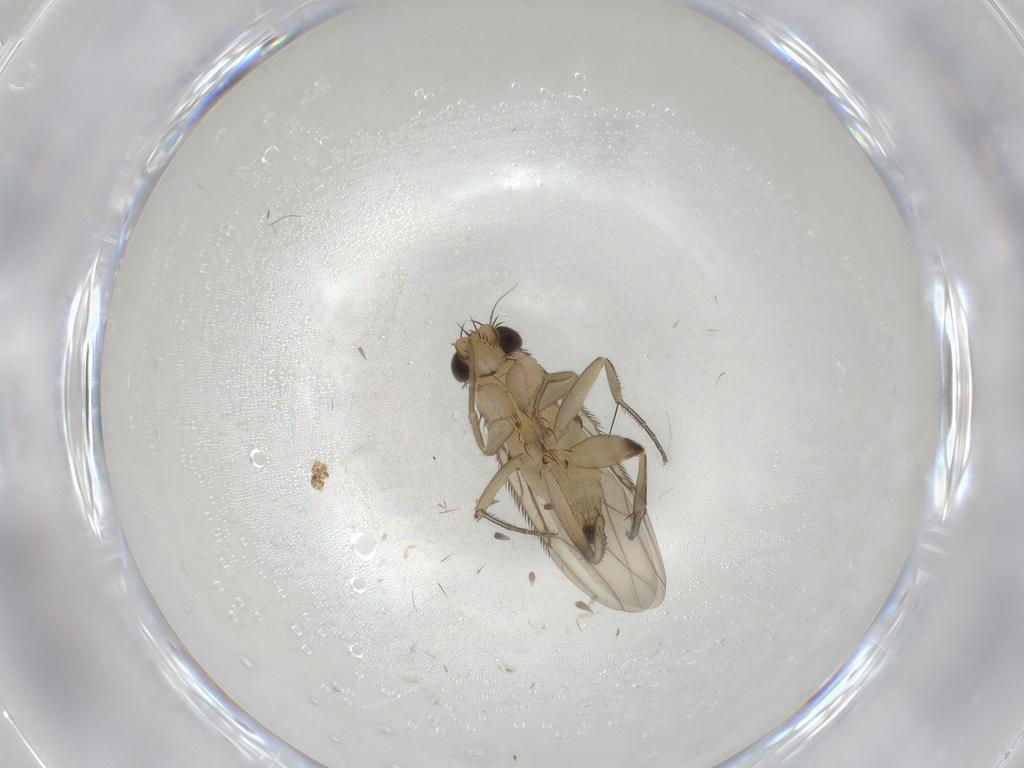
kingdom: Animalia
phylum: Arthropoda
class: Insecta
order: Diptera
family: Phoridae
